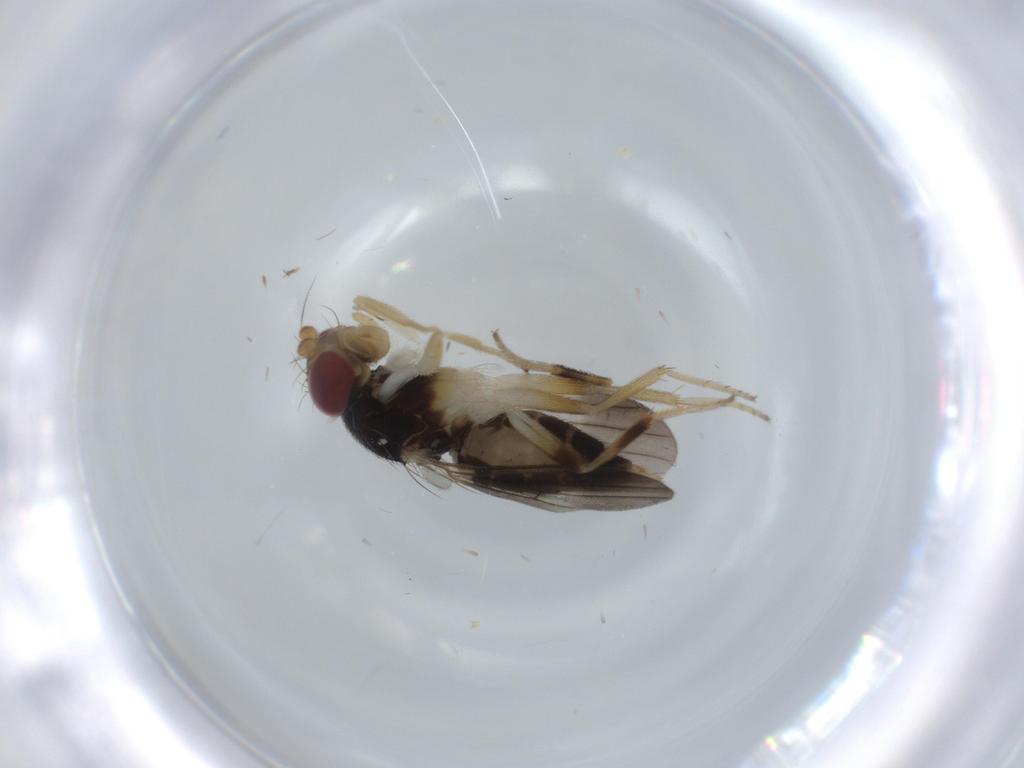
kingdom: Animalia
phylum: Arthropoda
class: Insecta
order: Diptera
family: Clusiidae
